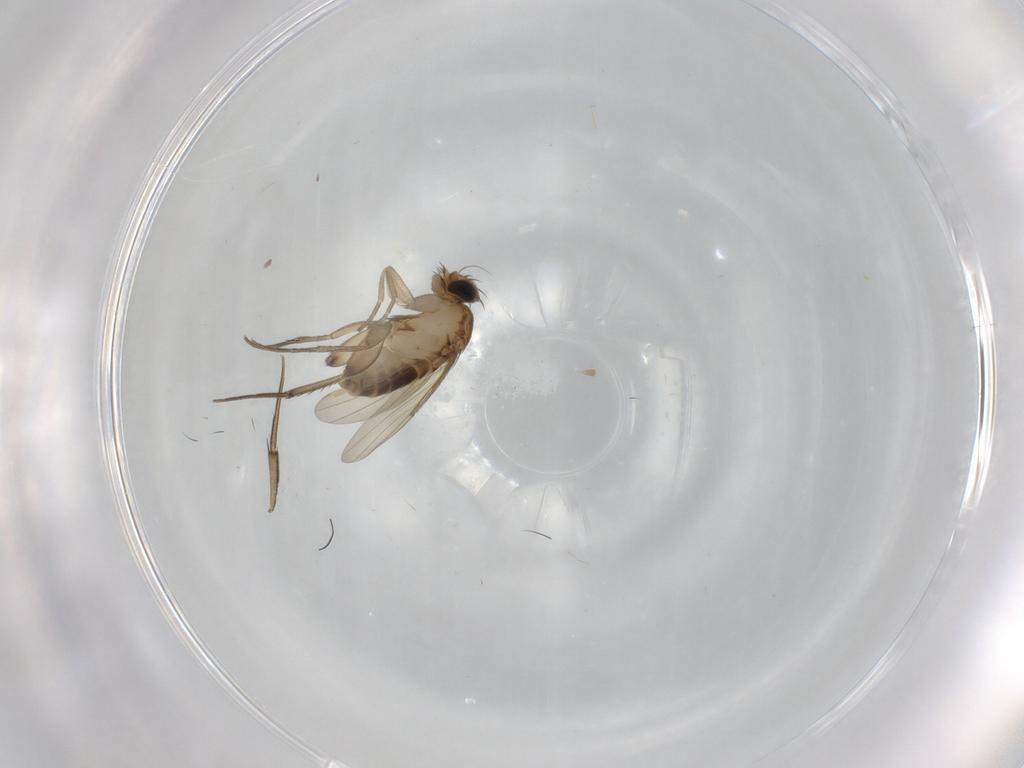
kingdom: Animalia
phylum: Arthropoda
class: Insecta
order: Diptera
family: Phoridae
